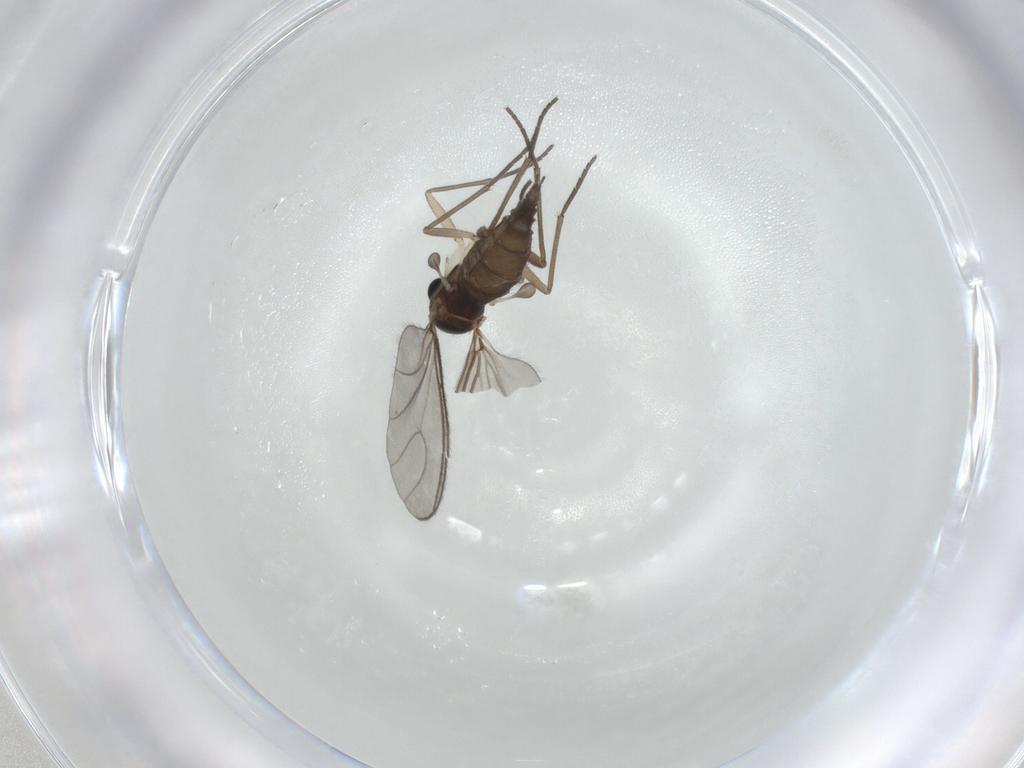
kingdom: Animalia
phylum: Arthropoda
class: Insecta
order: Diptera
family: Sciaridae
